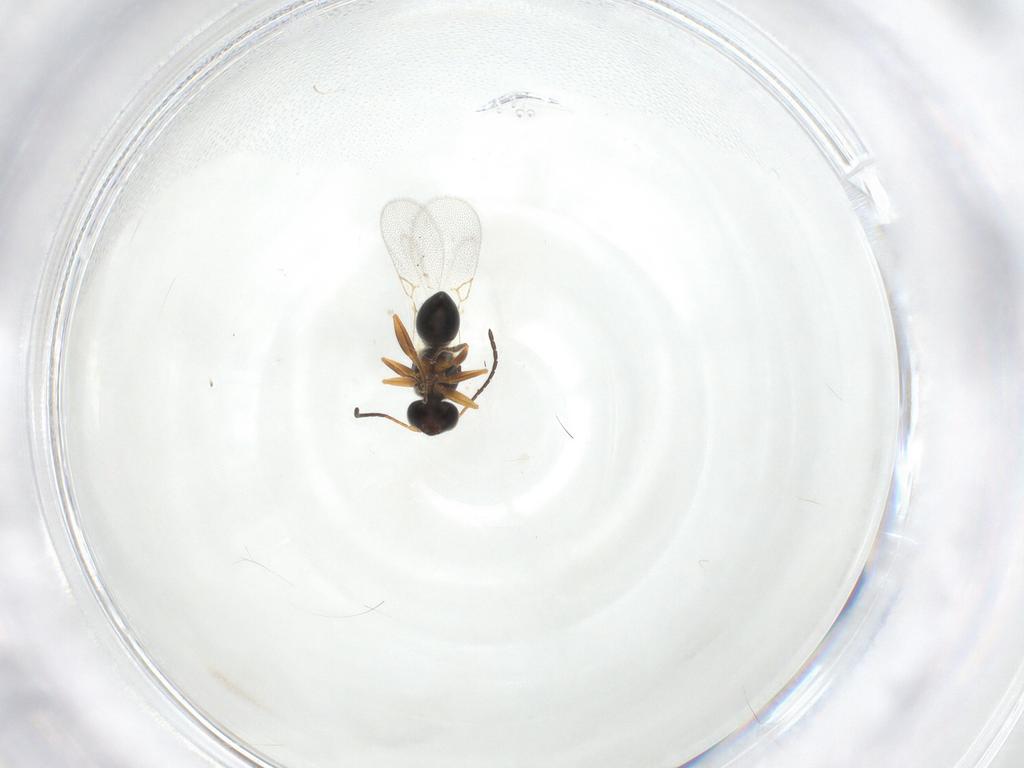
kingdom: Animalia
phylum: Arthropoda
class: Insecta
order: Hymenoptera
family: Figitidae
